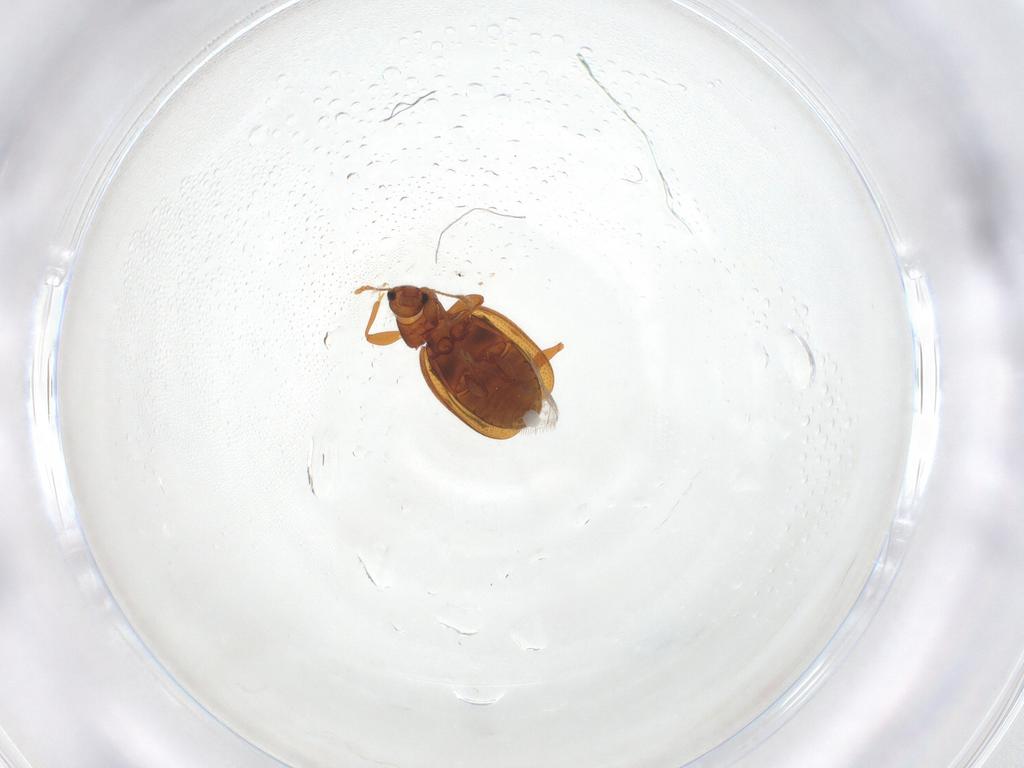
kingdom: Animalia
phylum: Arthropoda
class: Insecta
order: Coleoptera
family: Latridiidae
